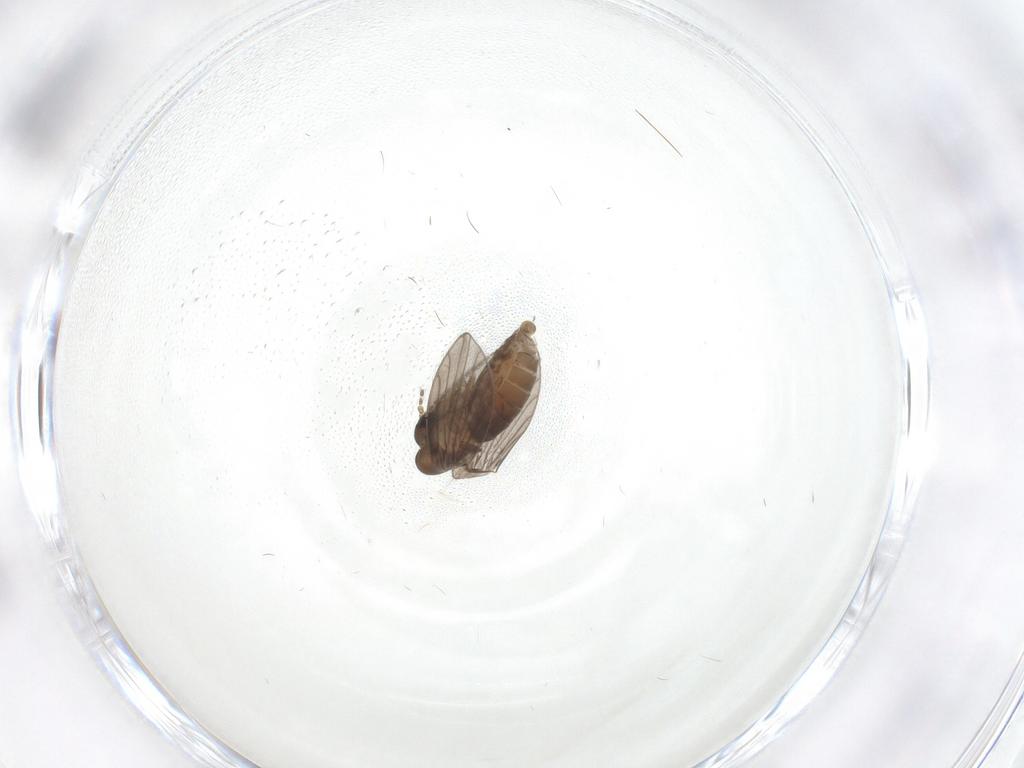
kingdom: Animalia
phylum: Arthropoda
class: Insecta
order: Diptera
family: Psychodidae
